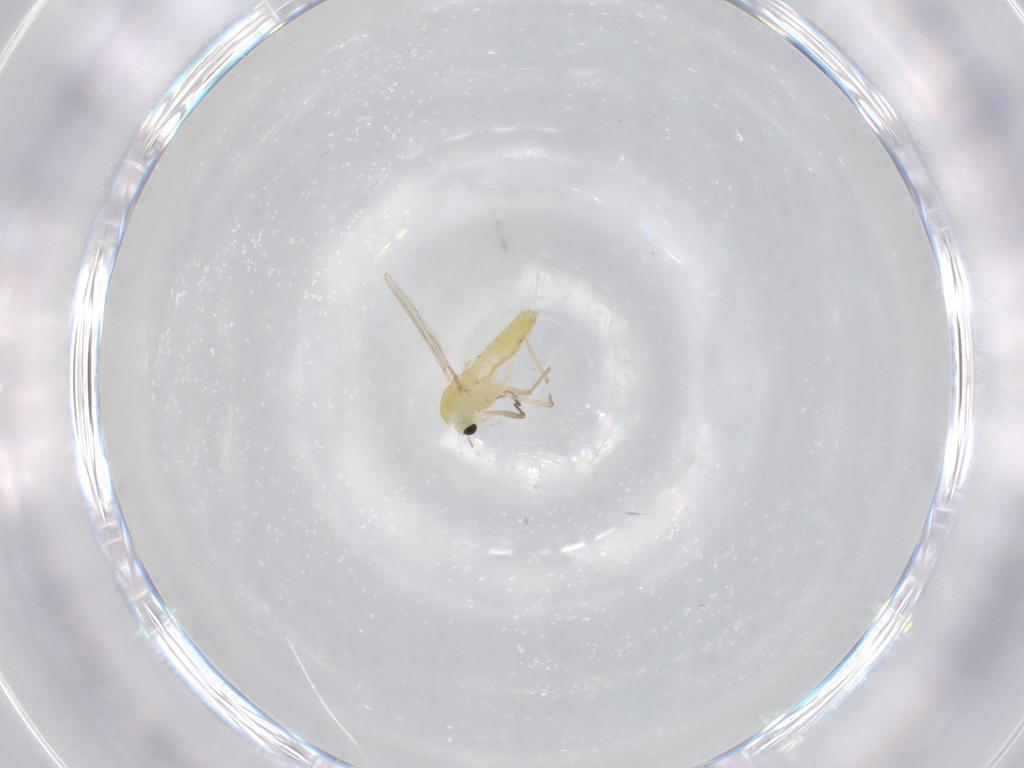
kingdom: Animalia
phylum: Arthropoda
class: Insecta
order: Diptera
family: Chironomidae
